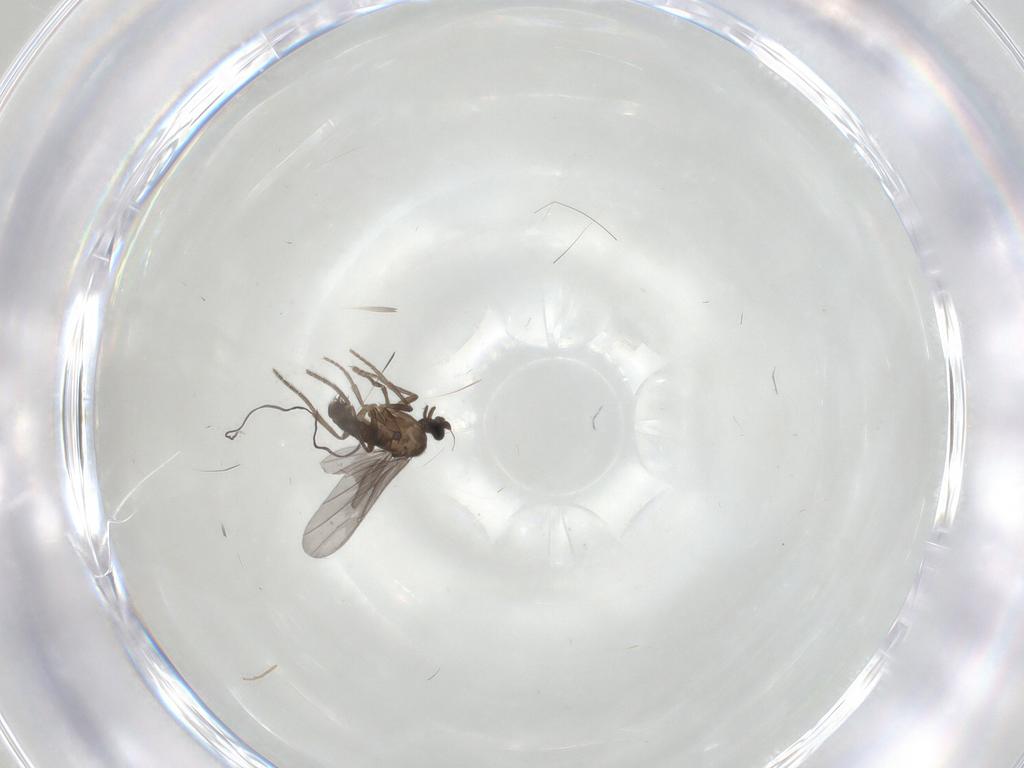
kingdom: Animalia
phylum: Arthropoda
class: Insecta
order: Diptera
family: Phoridae
